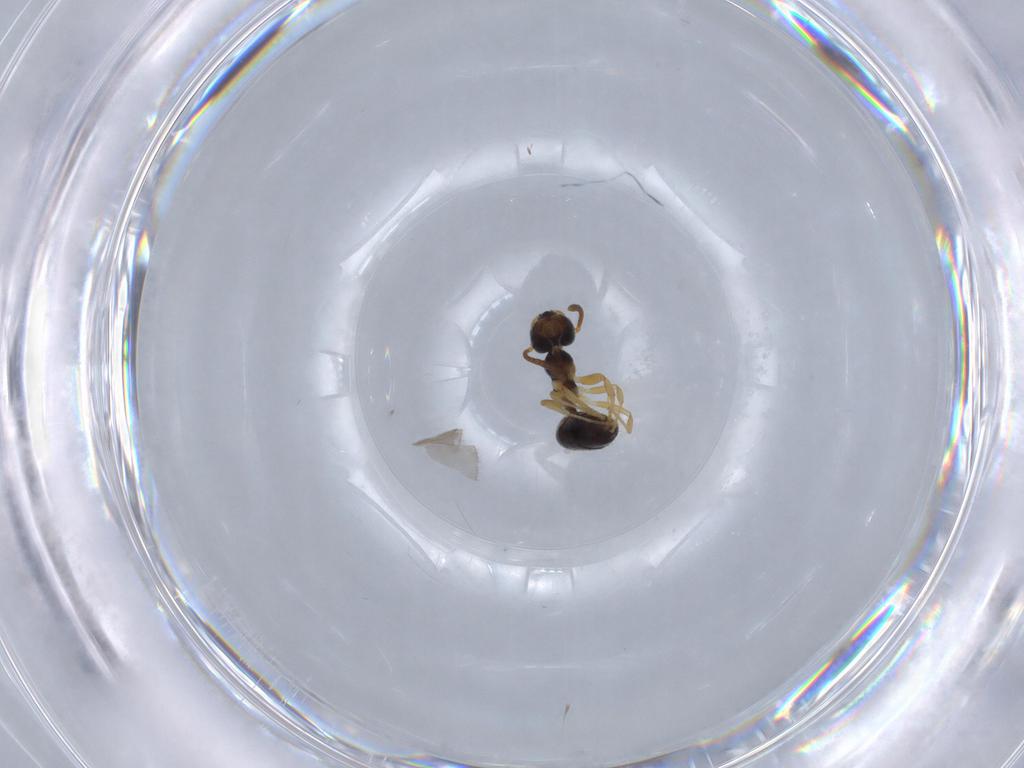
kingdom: Animalia
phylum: Arthropoda
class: Insecta
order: Hymenoptera
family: Formicidae
